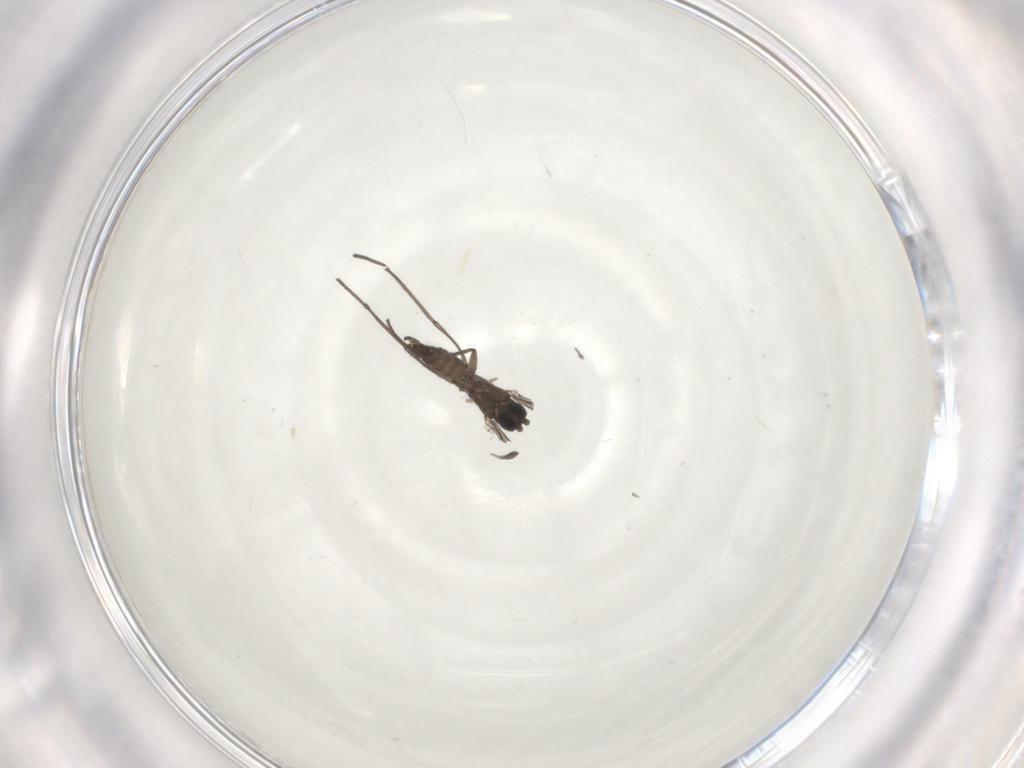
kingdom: Animalia
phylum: Arthropoda
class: Insecta
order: Diptera
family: Sciaridae
